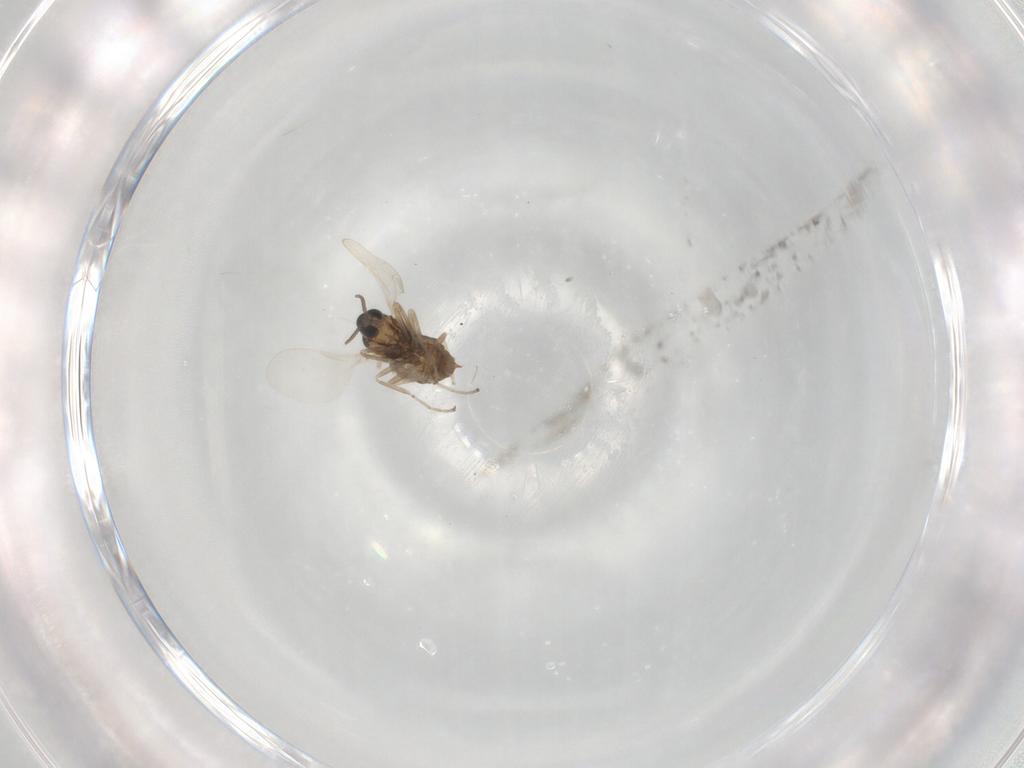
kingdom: Animalia
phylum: Arthropoda
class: Insecta
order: Diptera
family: Cecidomyiidae
